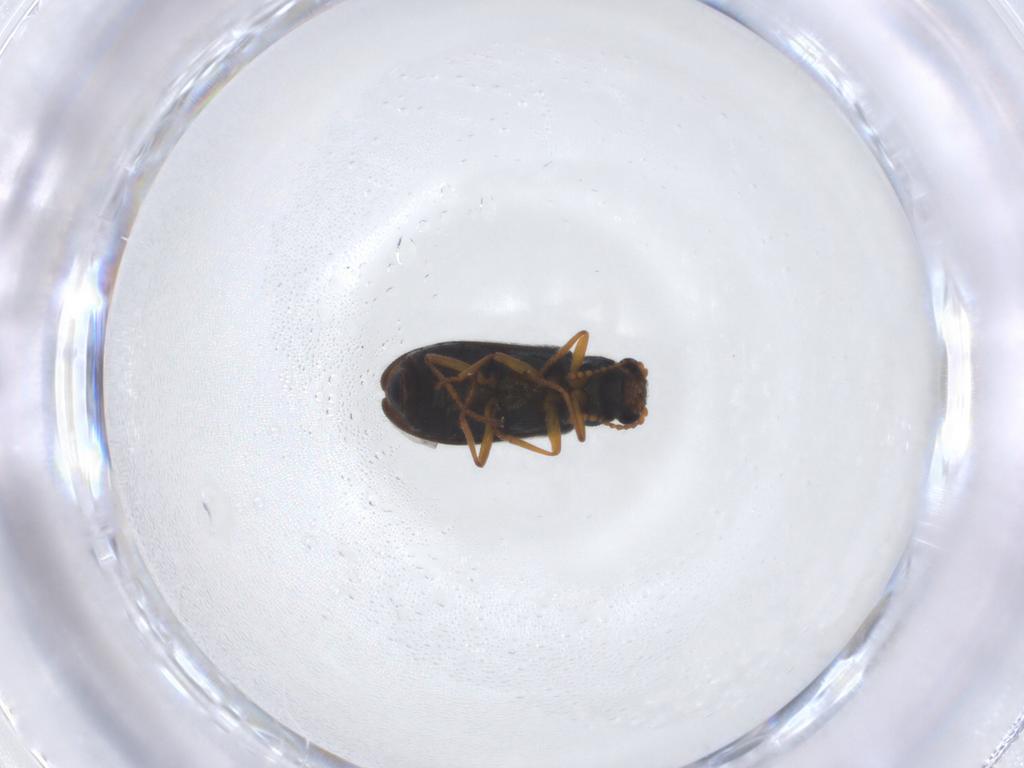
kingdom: Animalia
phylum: Arthropoda
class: Insecta
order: Coleoptera
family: Melyridae
